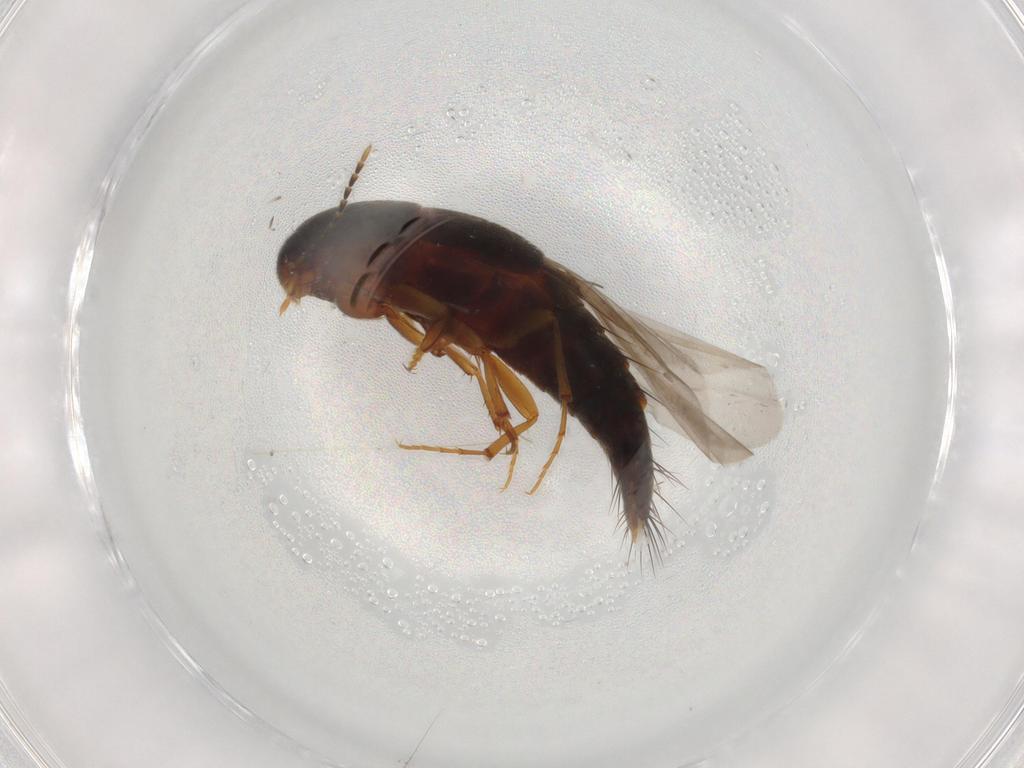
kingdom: Animalia
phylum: Arthropoda
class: Insecta
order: Coleoptera
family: Staphylinidae
